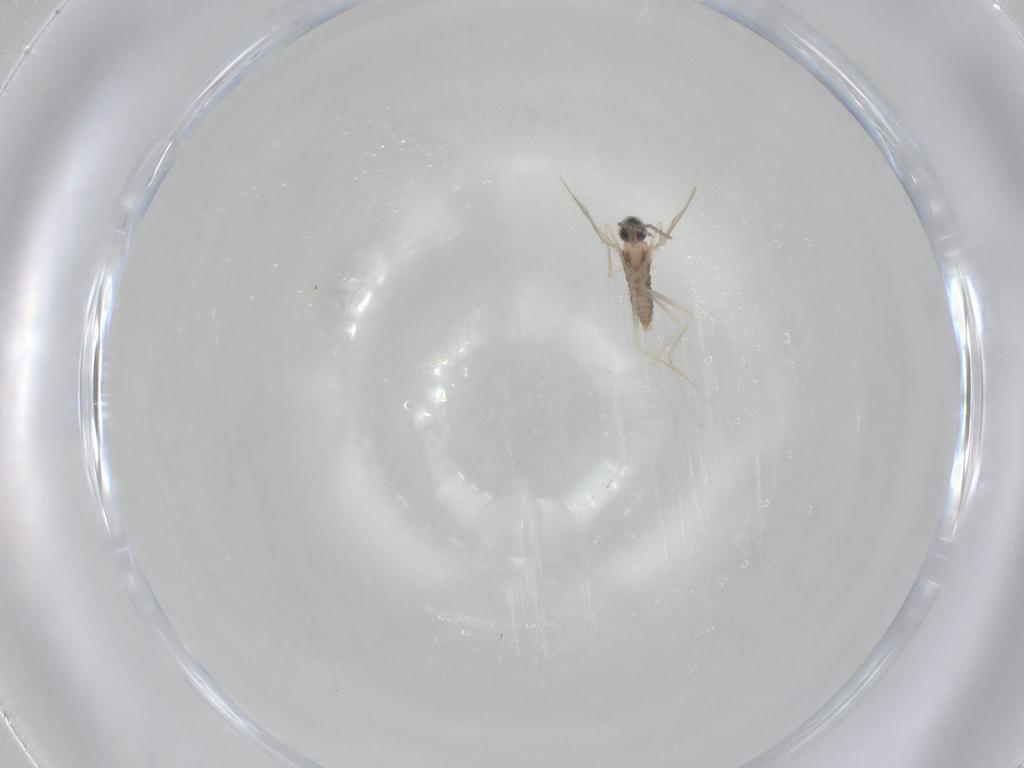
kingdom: Animalia
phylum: Arthropoda
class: Insecta
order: Diptera
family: Cecidomyiidae
